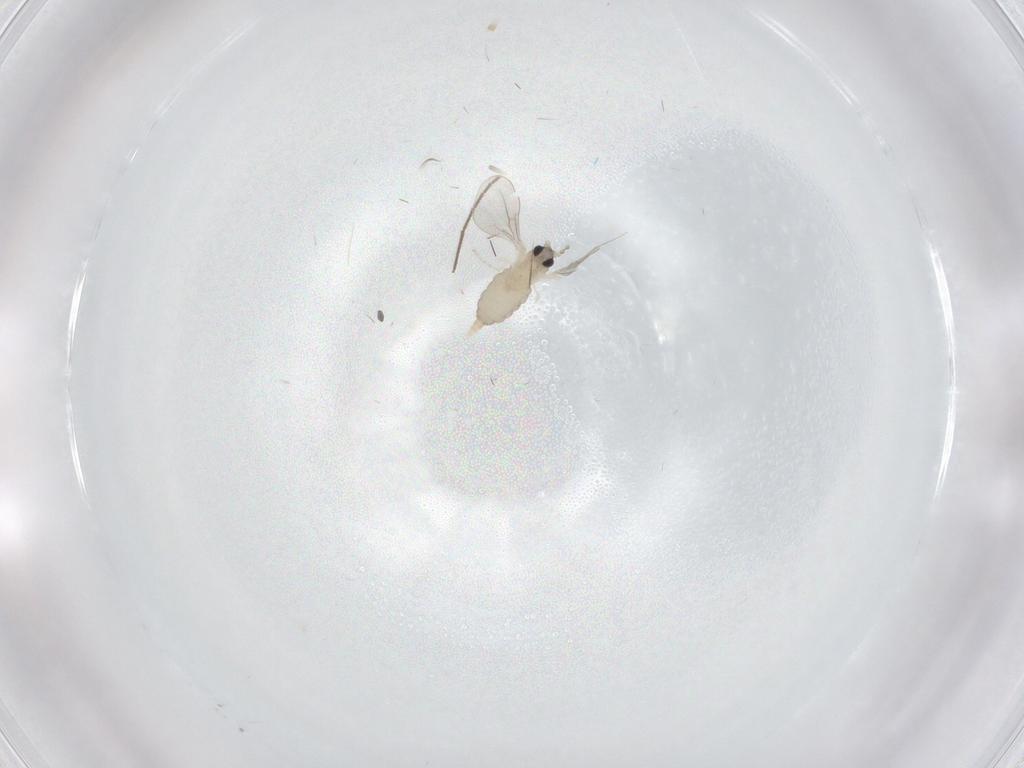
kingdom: Animalia
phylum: Arthropoda
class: Insecta
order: Diptera
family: Cecidomyiidae
